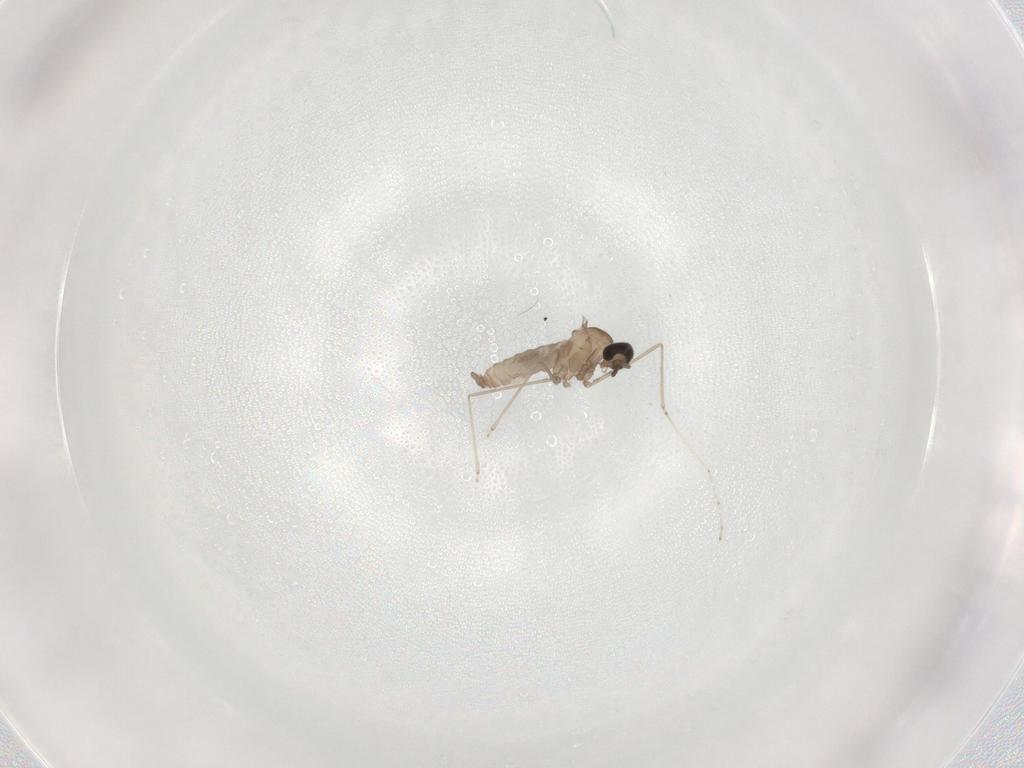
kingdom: Animalia
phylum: Arthropoda
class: Insecta
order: Diptera
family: Cecidomyiidae
